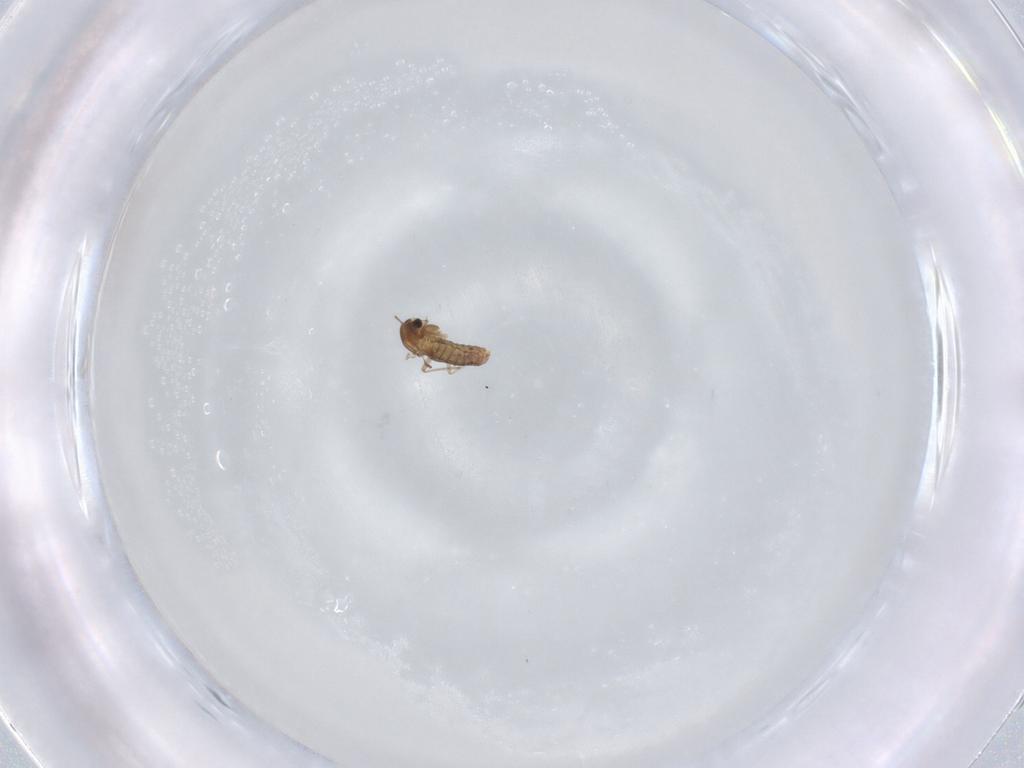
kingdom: Animalia
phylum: Arthropoda
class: Insecta
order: Diptera
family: Chironomidae
